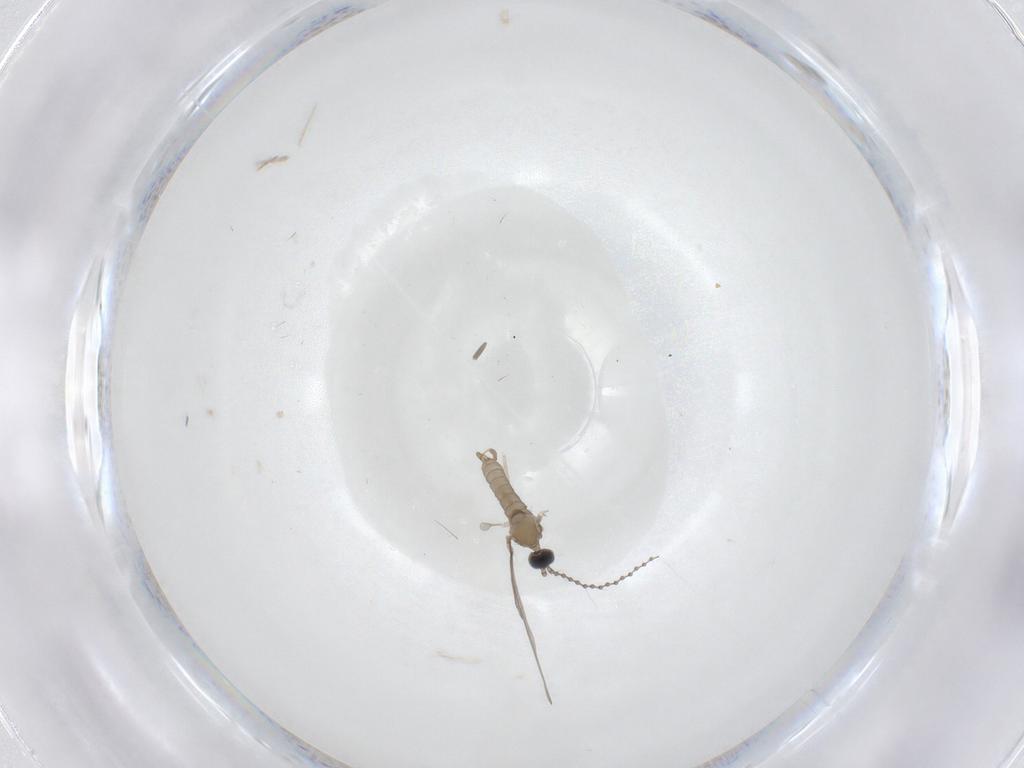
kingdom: Animalia
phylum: Arthropoda
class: Insecta
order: Diptera
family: Cecidomyiidae
